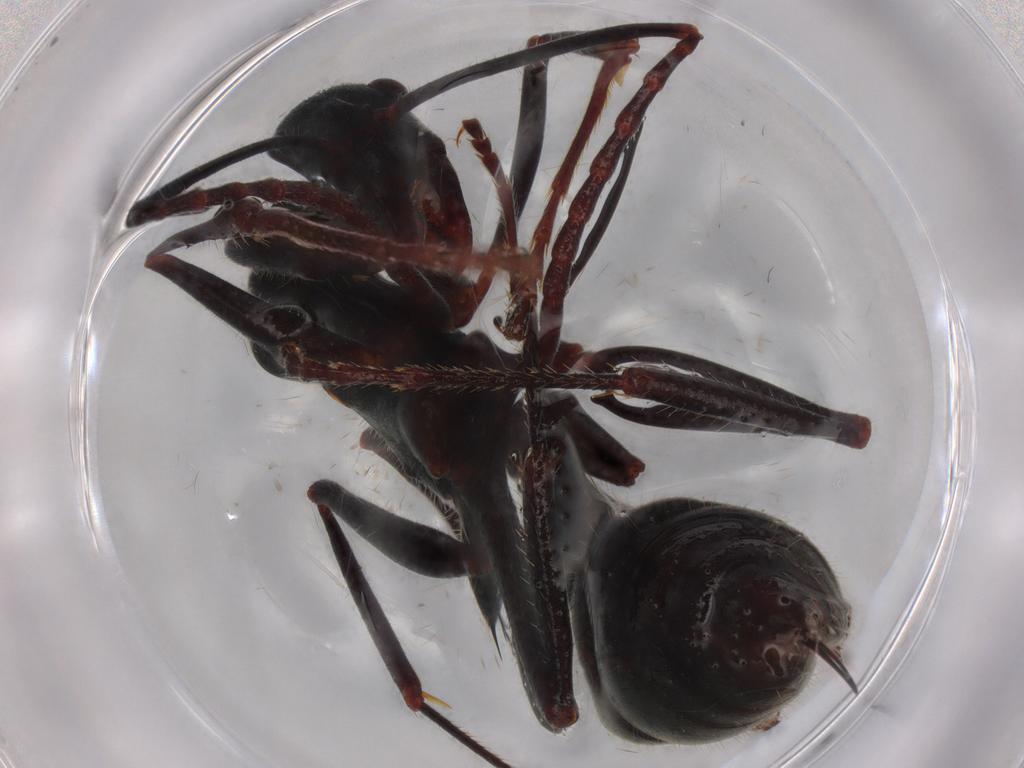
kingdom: Animalia
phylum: Arthropoda
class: Insecta
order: Hymenoptera
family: Formicidae
